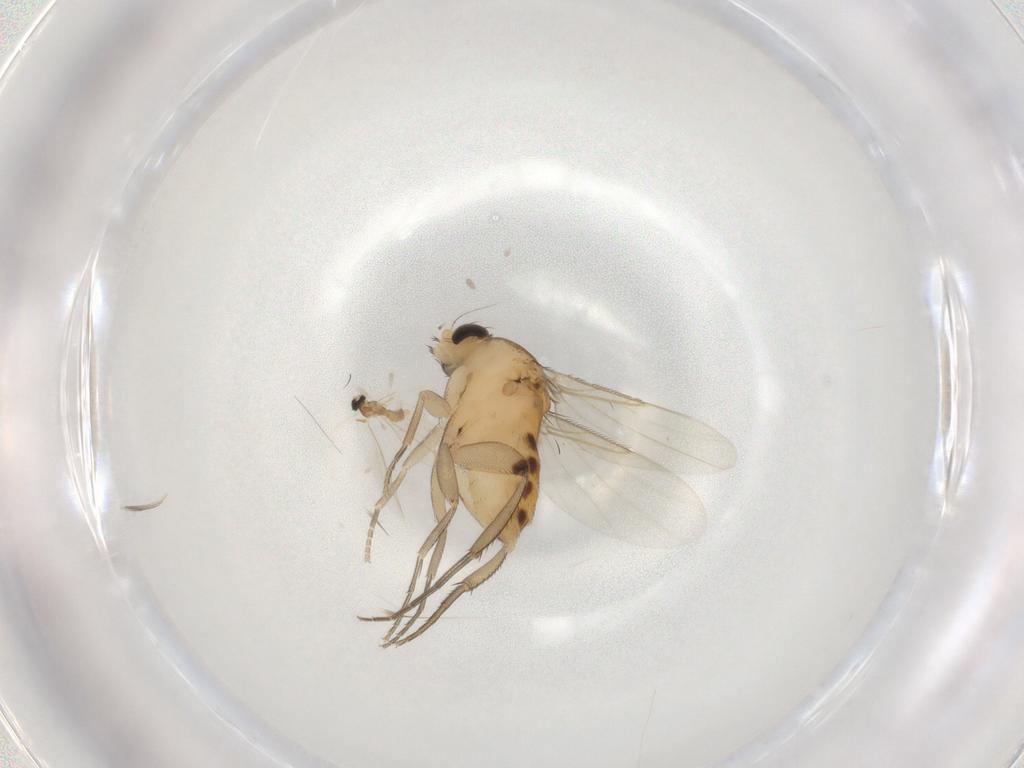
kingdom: Animalia
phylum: Arthropoda
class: Insecta
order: Diptera
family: Phoridae
